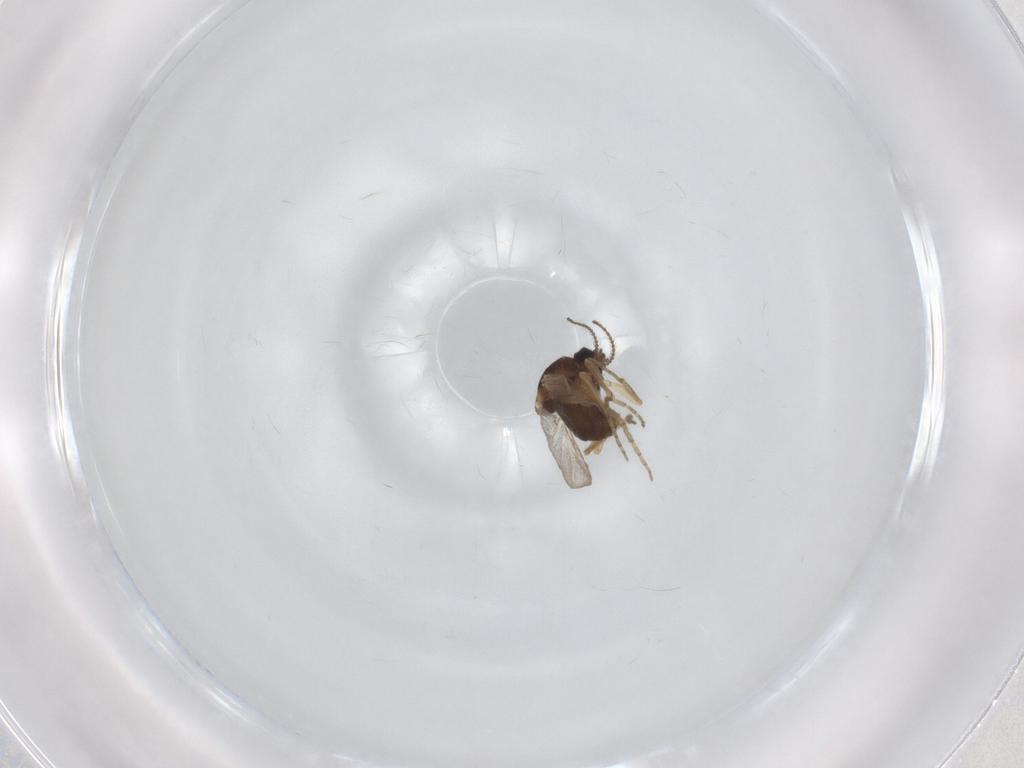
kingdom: Animalia
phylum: Arthropoda
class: Insecta
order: Diptera
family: Ceratopogonidae
